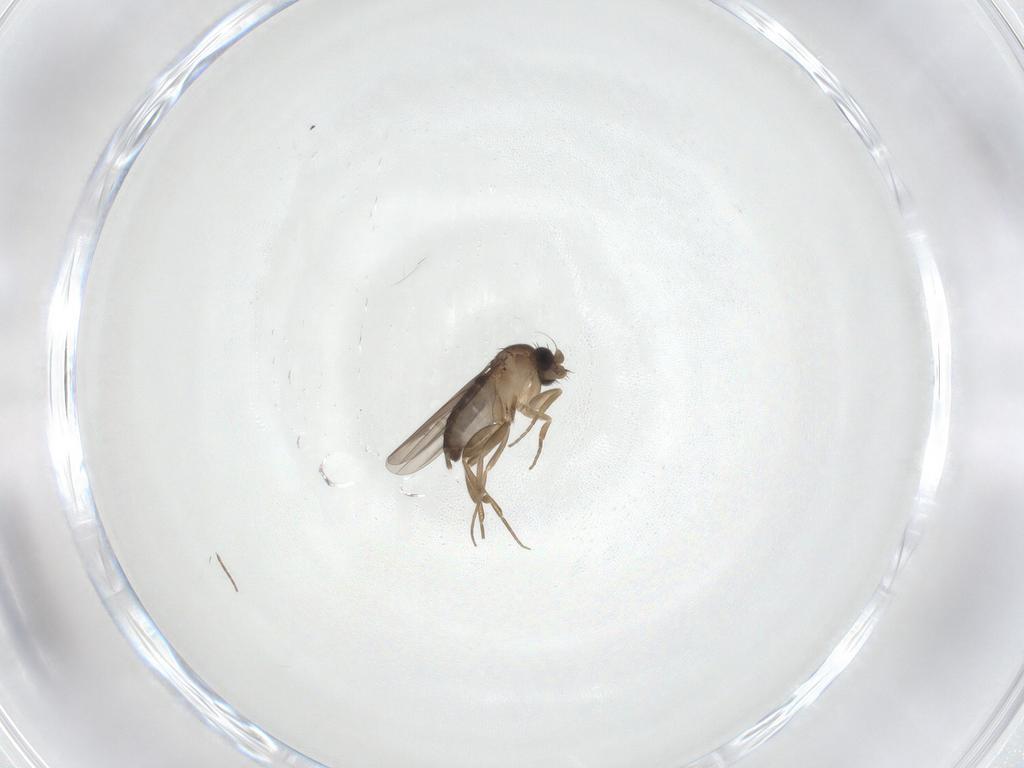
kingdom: Animalia
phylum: Arthropoda
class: Insecta
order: Diptera
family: Phoridae
